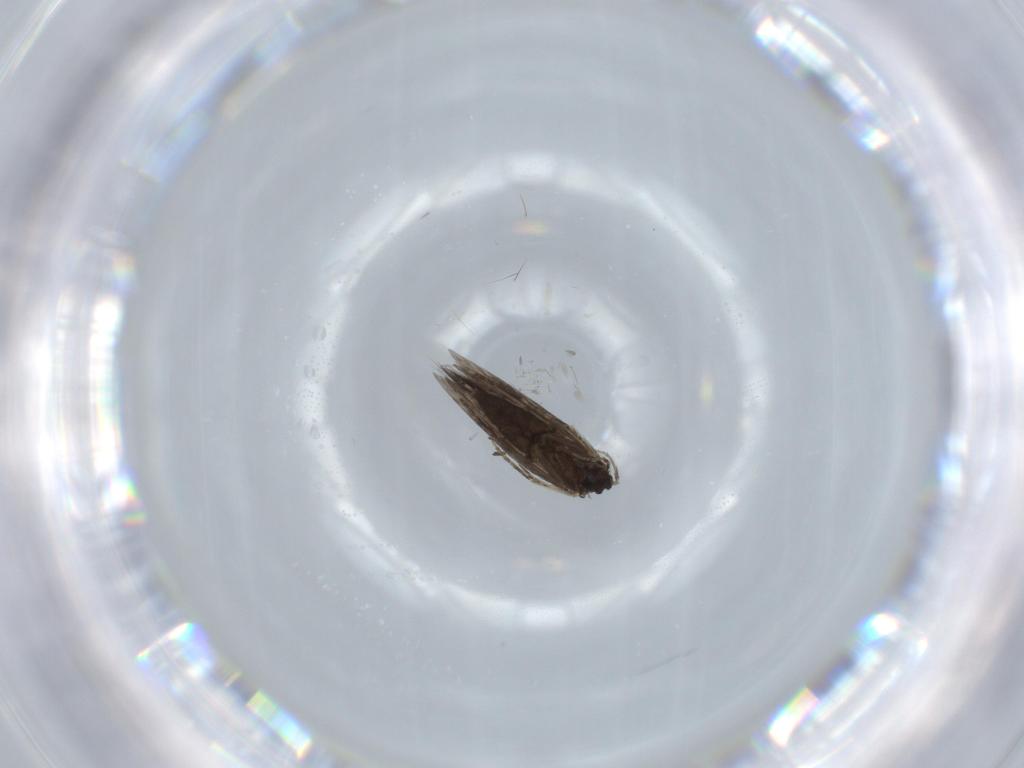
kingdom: Animalia
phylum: Arthropoda
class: Insecta
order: Trichoptera
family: Hydroptilidae
